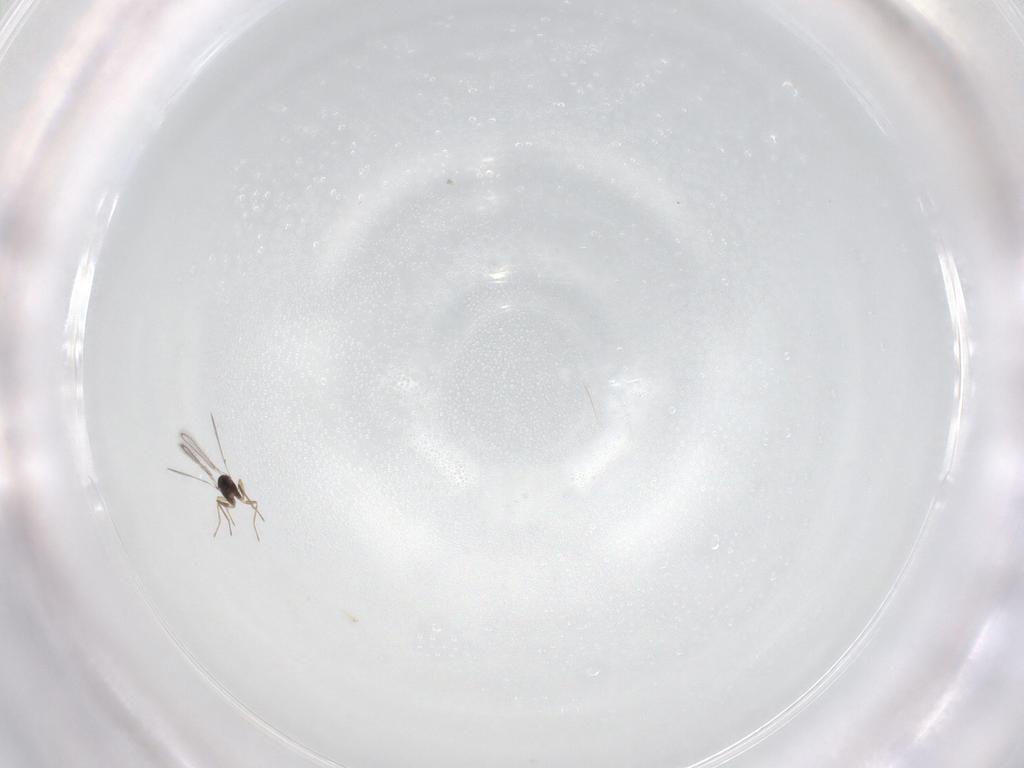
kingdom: Animalia
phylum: Arthropoda
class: Insecta
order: Hymenoptera
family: Eulophidae
